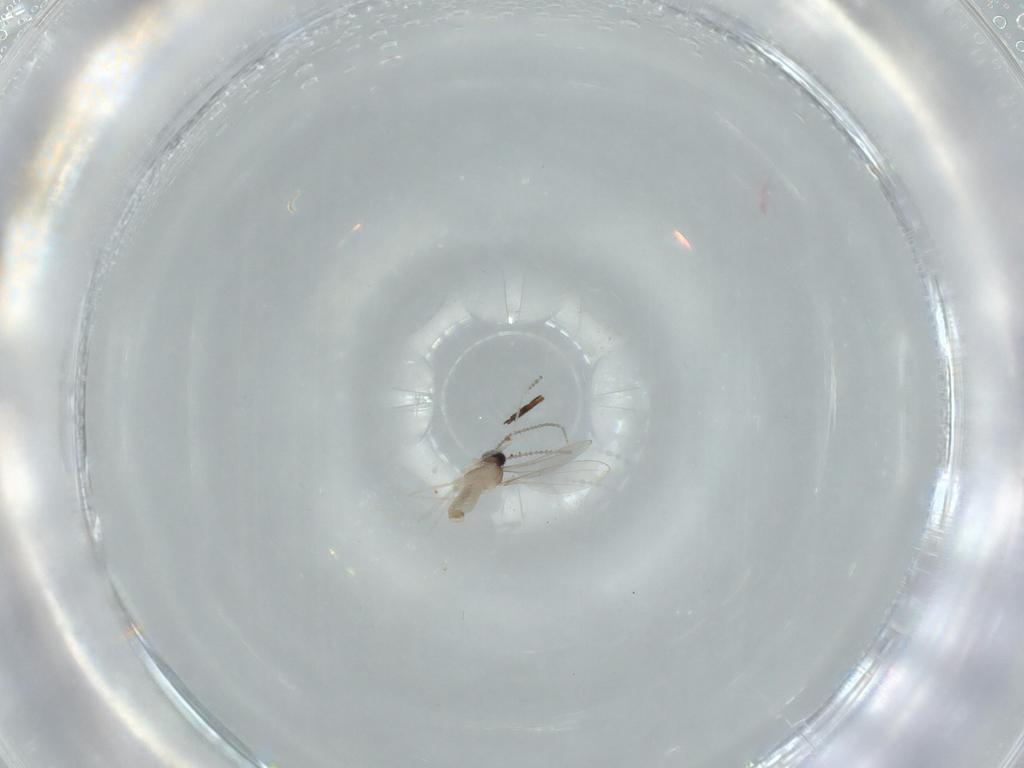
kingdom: Animalia
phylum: Arthropoda
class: Insecta
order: Diptera
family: Cecidomyiidae
